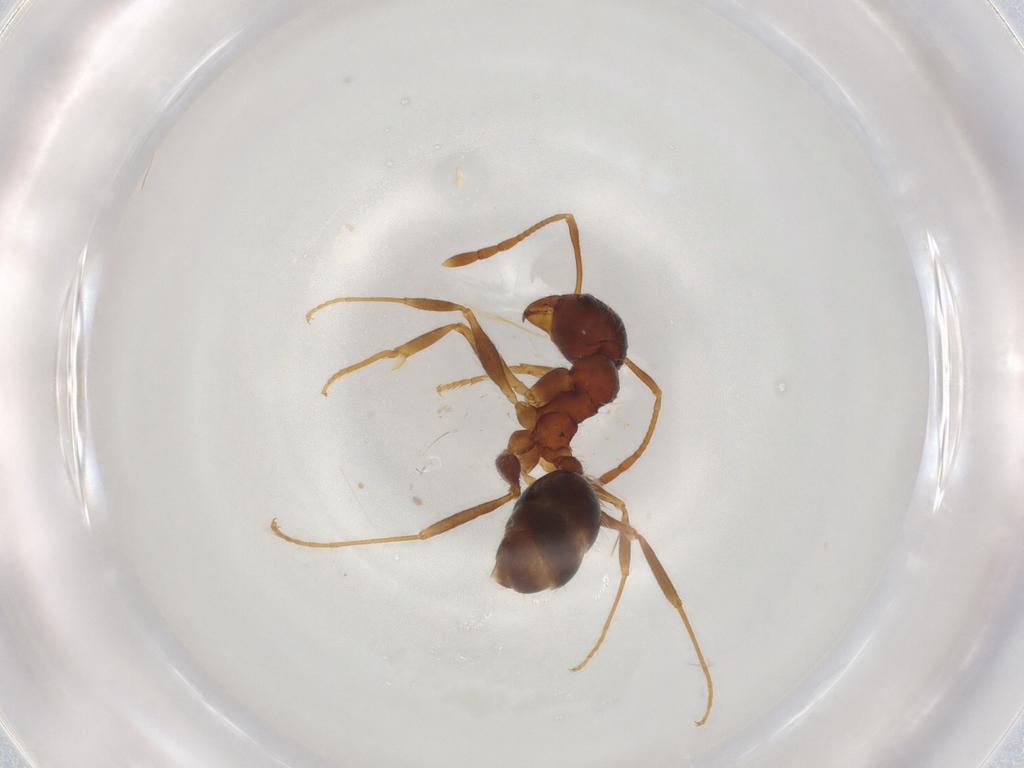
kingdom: Animalia
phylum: Arthropoda
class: Insecta
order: Hymenoptera
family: Formicidae
